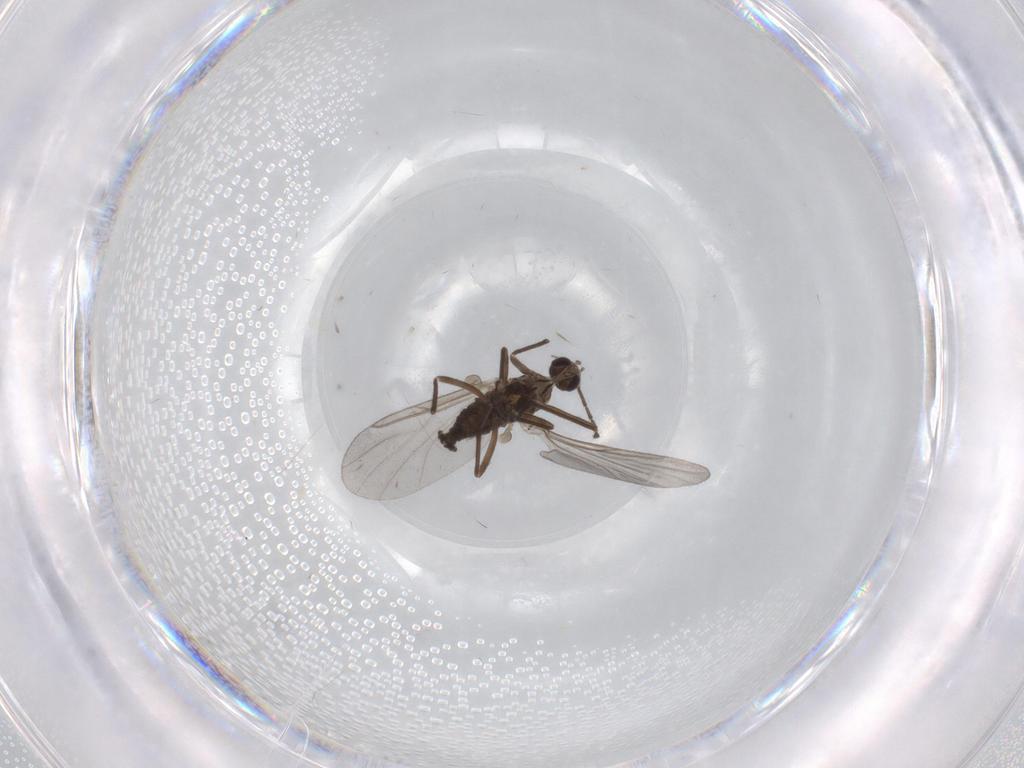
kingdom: Animalia
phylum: Arthropoda
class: Insecta
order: Diptera
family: Cecidomyiidae
